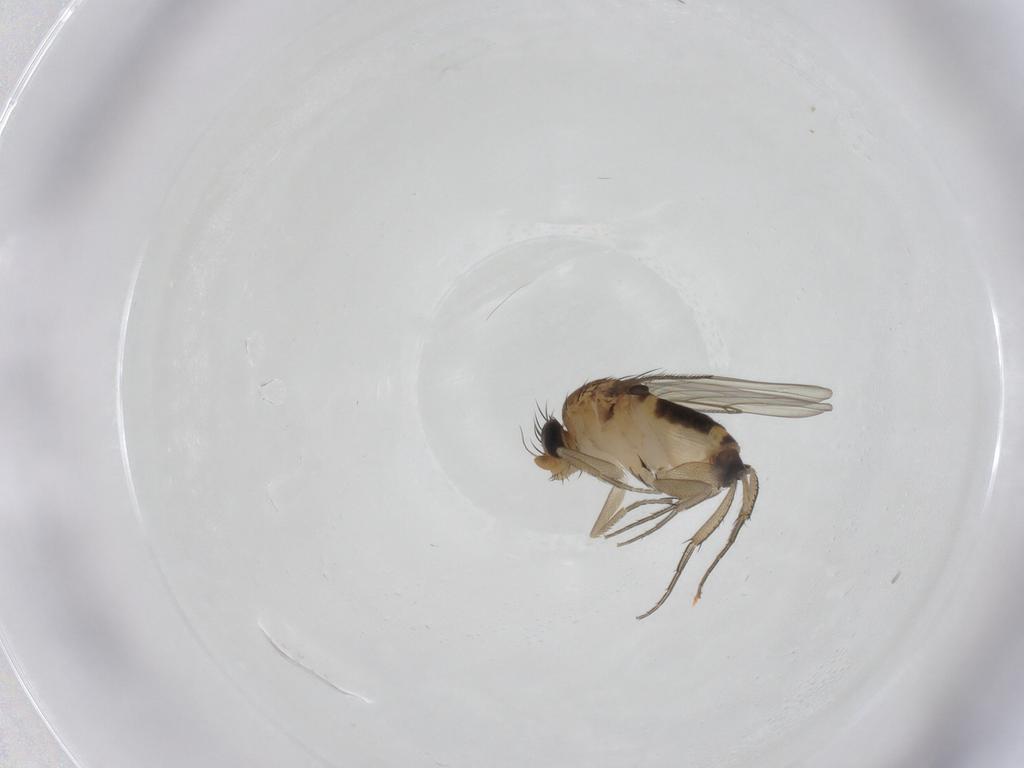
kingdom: Animalia
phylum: Arthropoda
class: Insecta
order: Diptera
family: Phoridae
